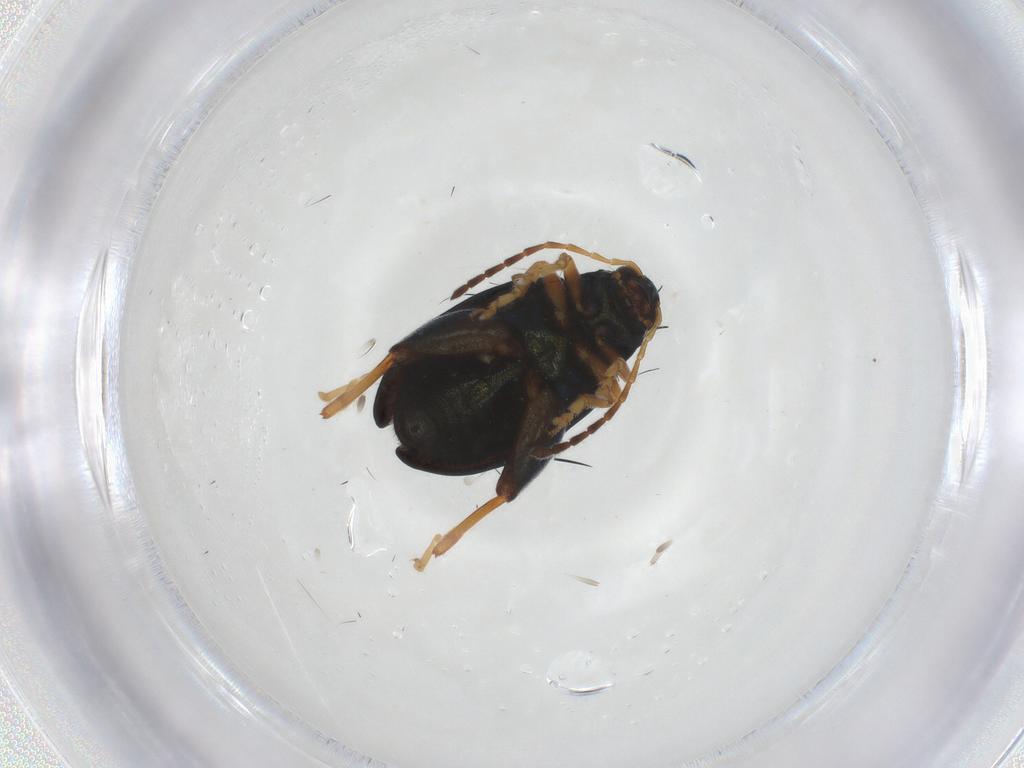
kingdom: Animalia
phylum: Arthropoda
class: Insecta
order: Coleoptera
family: Chrysomelidae
